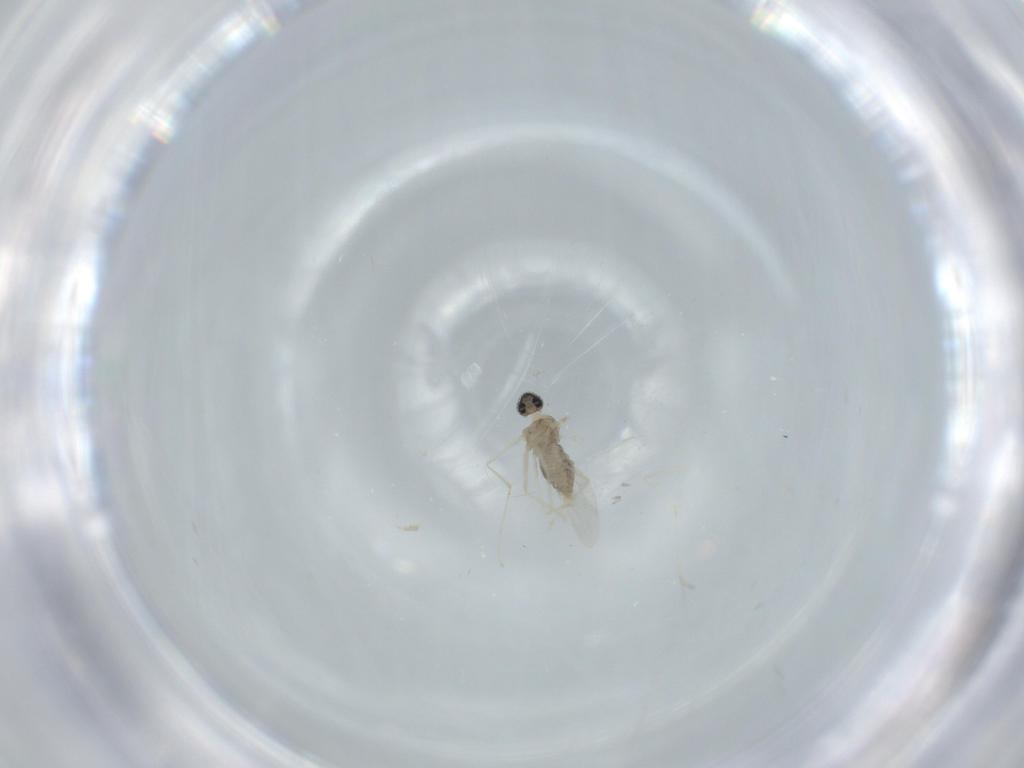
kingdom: Animalia
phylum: Arthropoda
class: Insecta
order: Diptera
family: Cecidomyiidae
